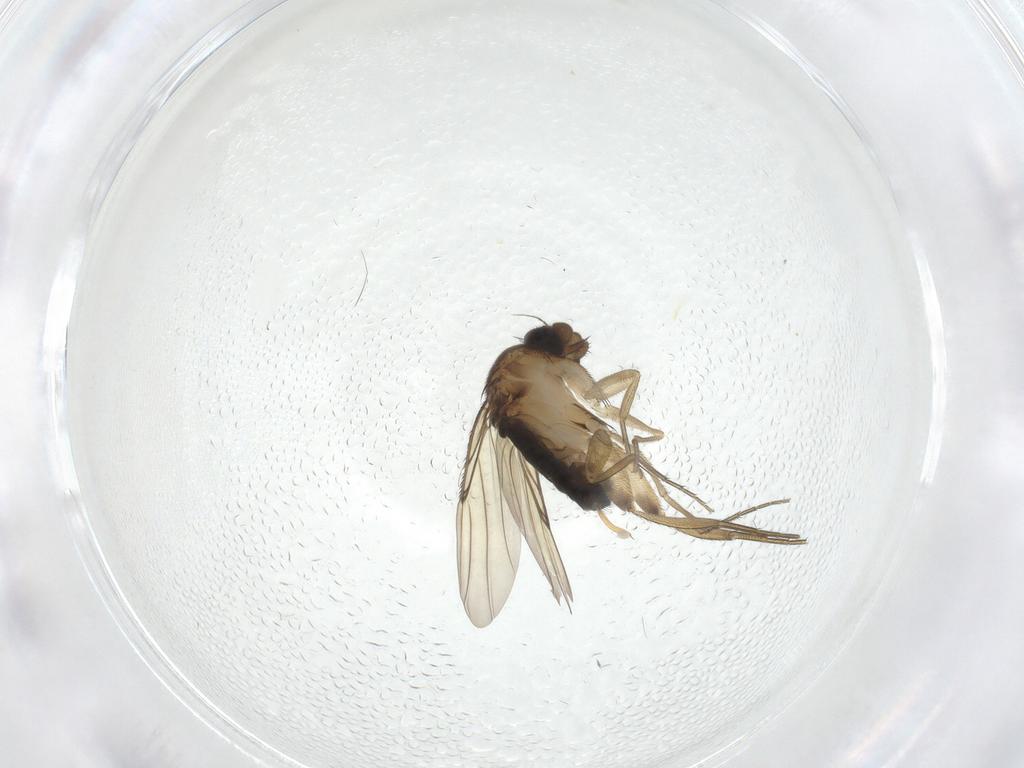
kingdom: Animalia
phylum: Arthropoda
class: Insecta
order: Diptera
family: Phoridae
